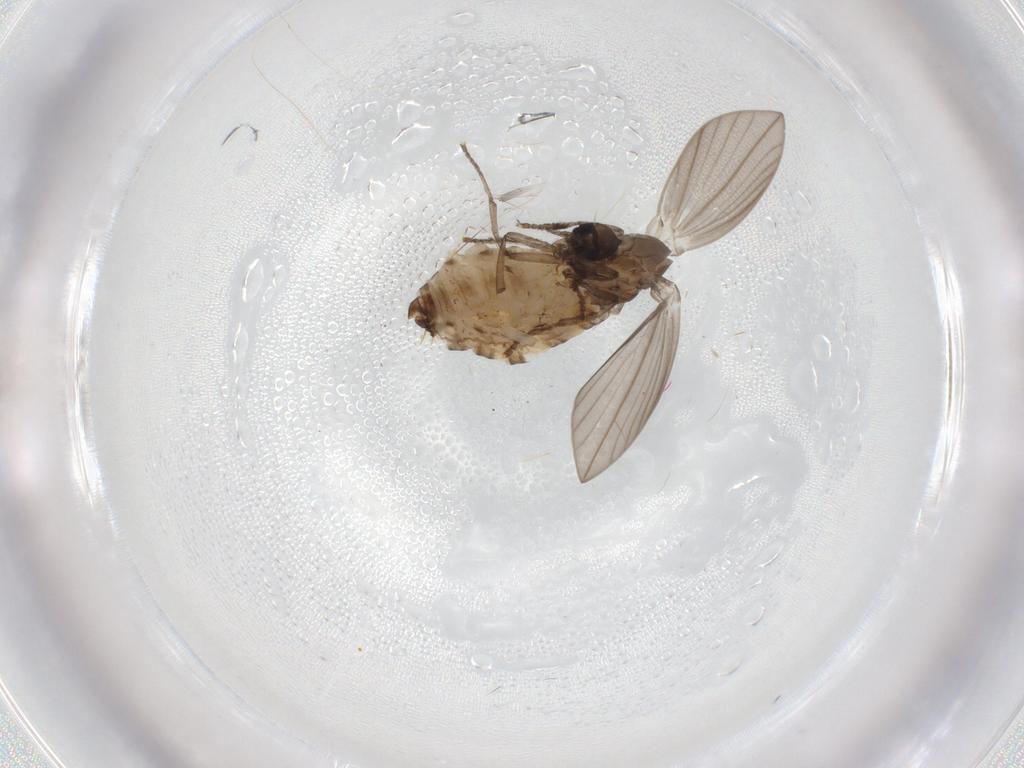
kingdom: Animalia
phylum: Arthropoda
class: Insecta
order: Diptera
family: Psychodidae
